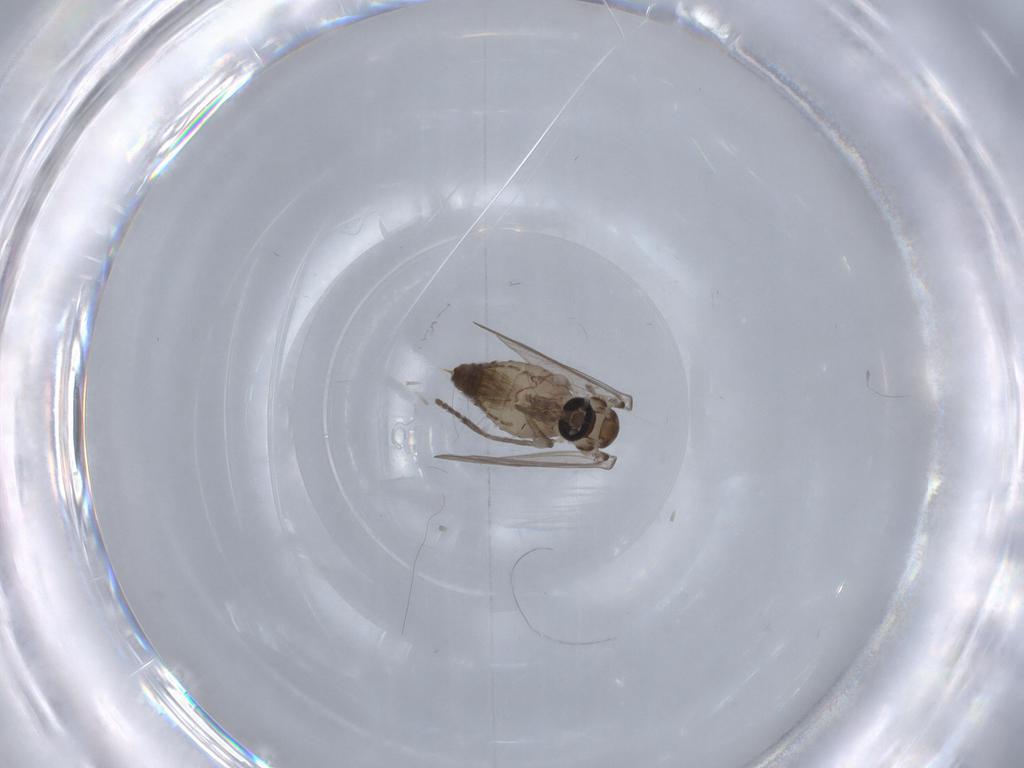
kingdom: Animalia
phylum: Arthropoda
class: Insecta
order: Diptera
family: Psychodidae
